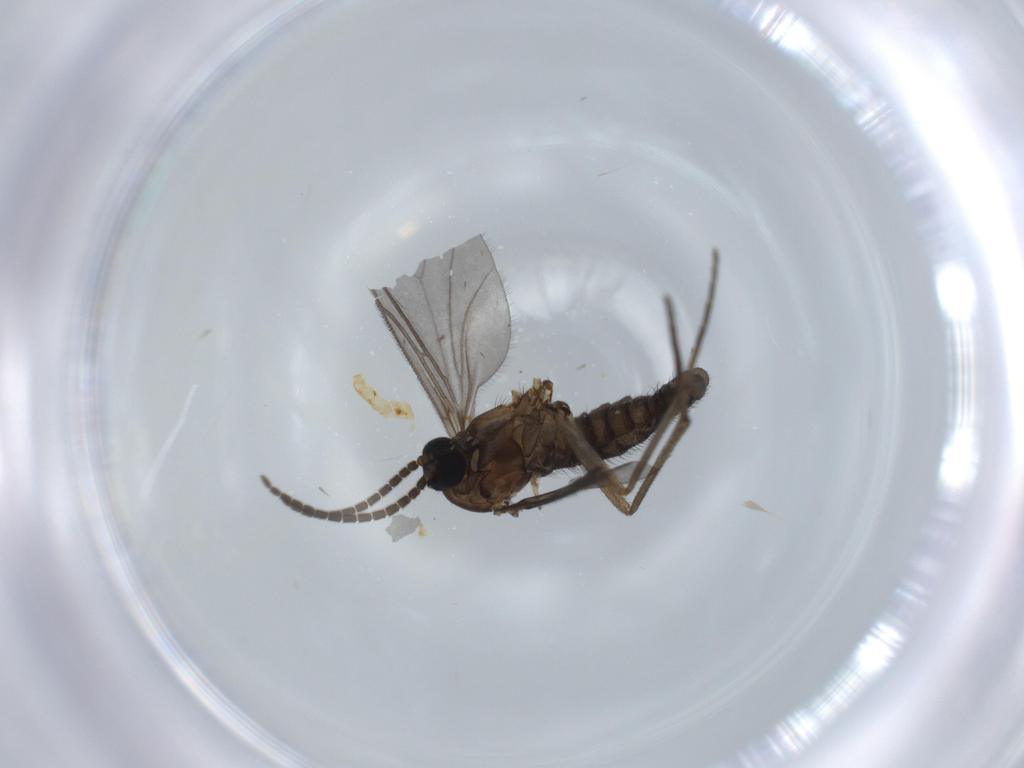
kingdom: Animalia
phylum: Arthropoda
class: Insecta
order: Diptera
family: Sciaridae
